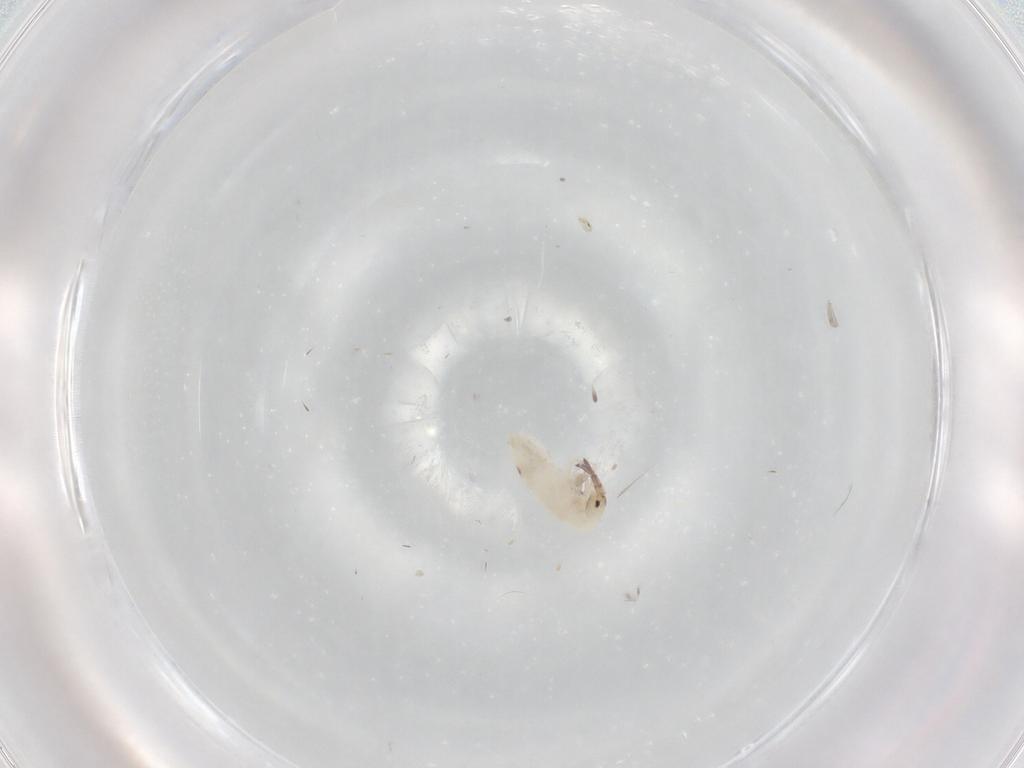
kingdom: Animalia
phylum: Arthropoda
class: Collembola
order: Entomobryomorpha
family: Entomobryidae
